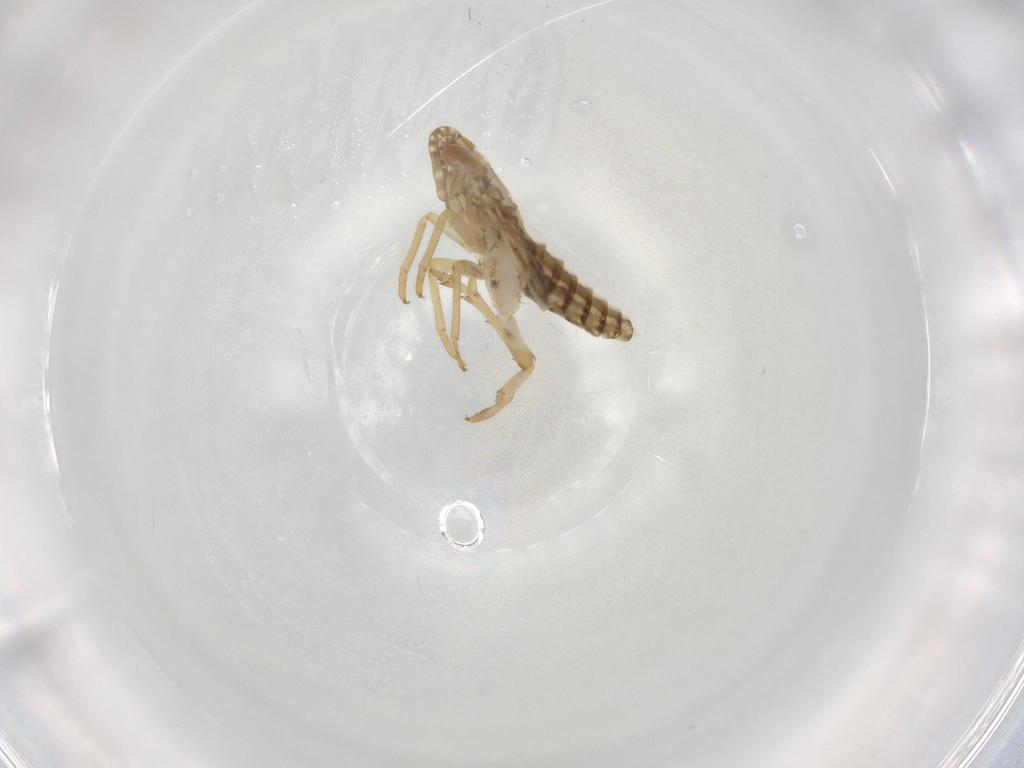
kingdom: Animalia
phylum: Arthropoda
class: Insecta
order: Hemiptera
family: Delphacidae
